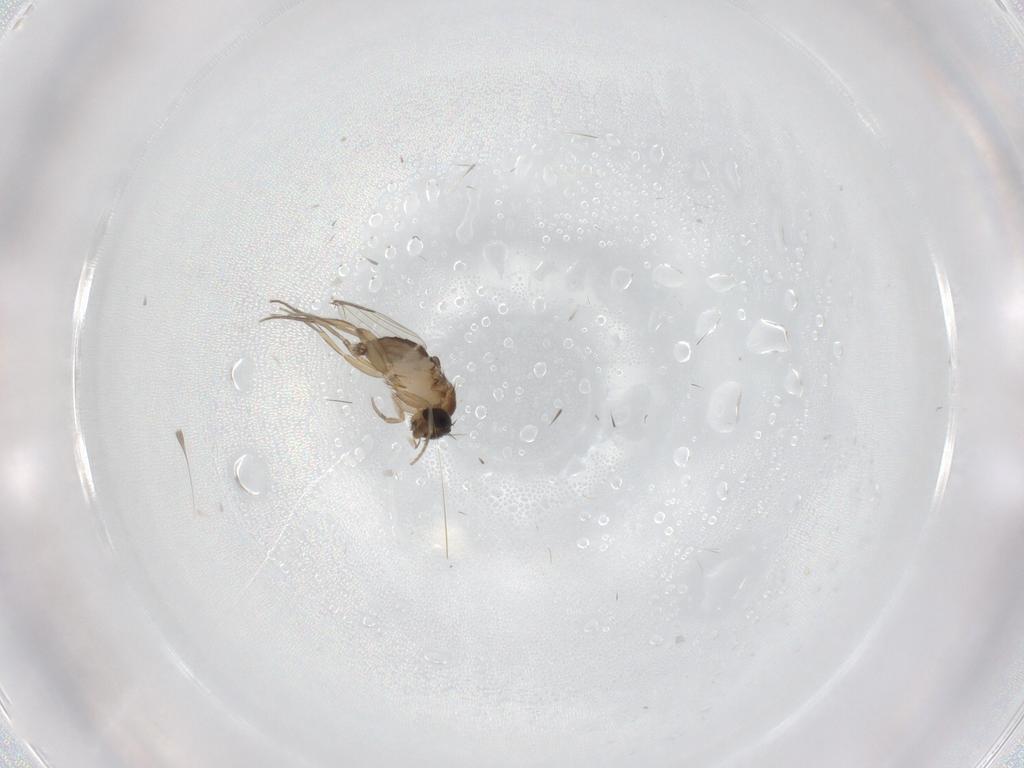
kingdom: Animalia
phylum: Arthropoda
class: Insecta
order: Diptera
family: Phoridae
